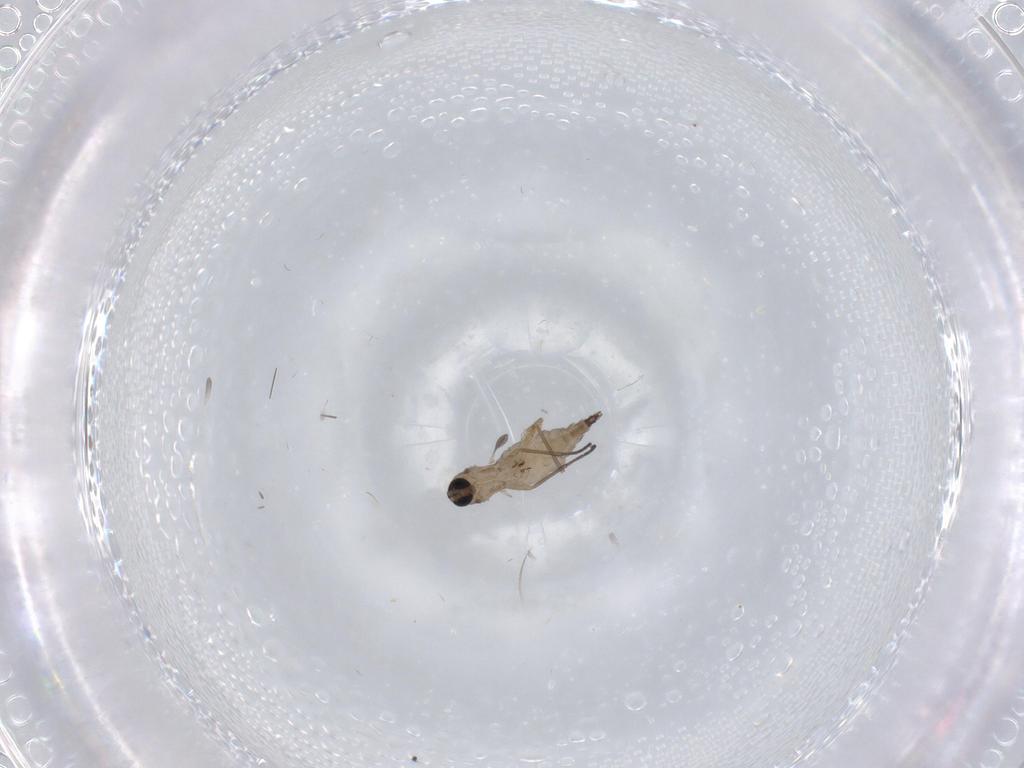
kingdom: Animalia
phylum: Arthropoda
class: Insecta
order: Diptera
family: Sciaridae
